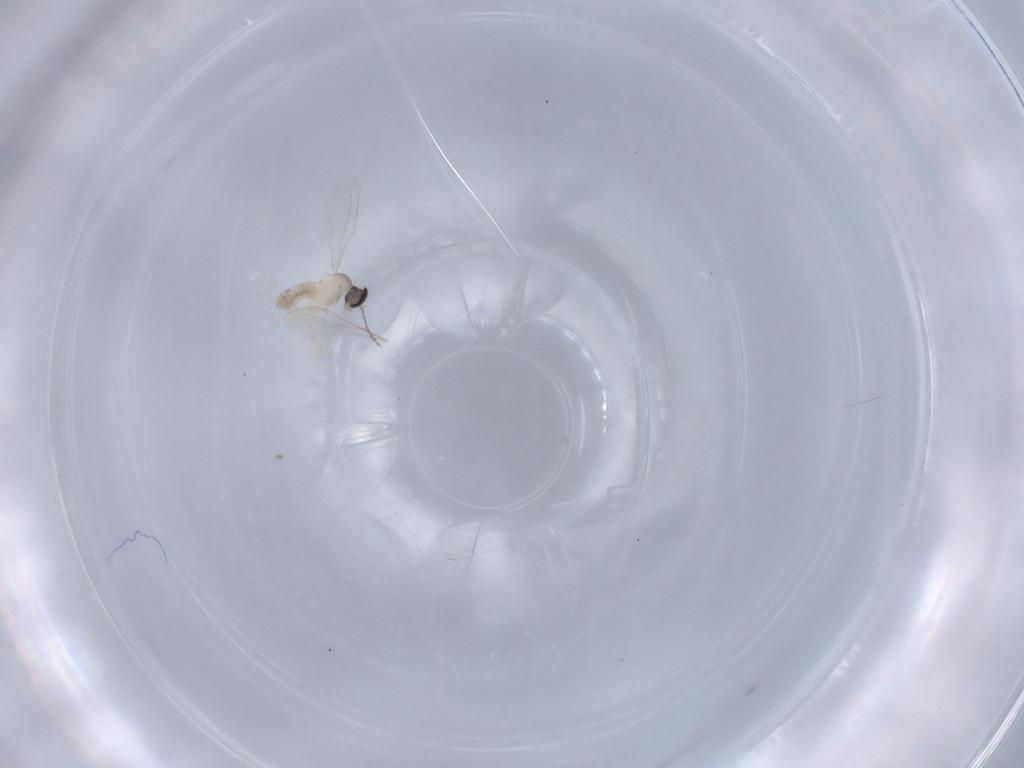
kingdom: Animalia
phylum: Arthropoda
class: Insecta
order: Diptera
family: Cecidomyiidae
